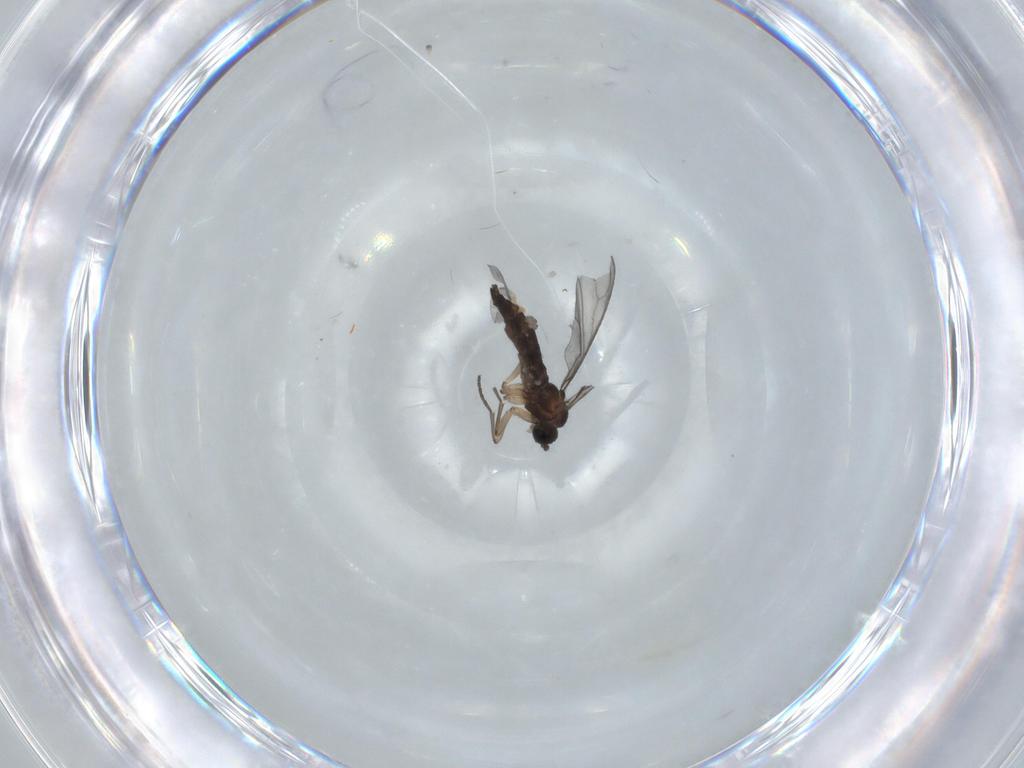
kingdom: Animalia
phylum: Arthropoda
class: Insecta
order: Diptera
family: Sciaridae
